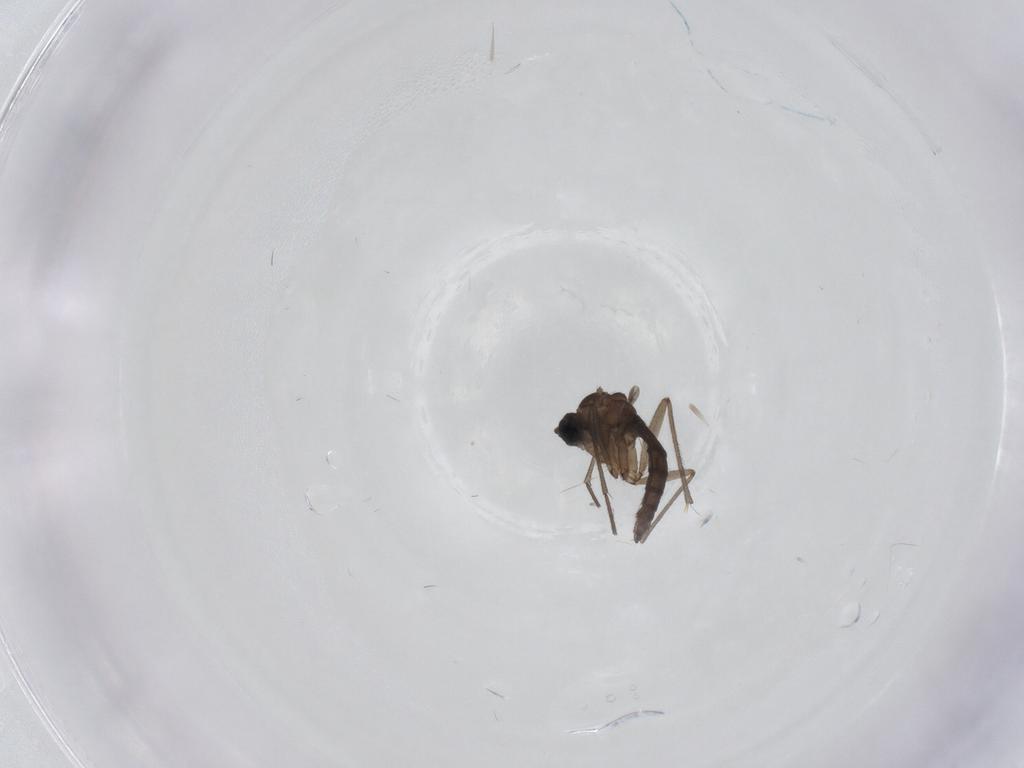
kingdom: Animalia
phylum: Arthropoda
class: Insecta
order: Diptera
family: Sciaridae
